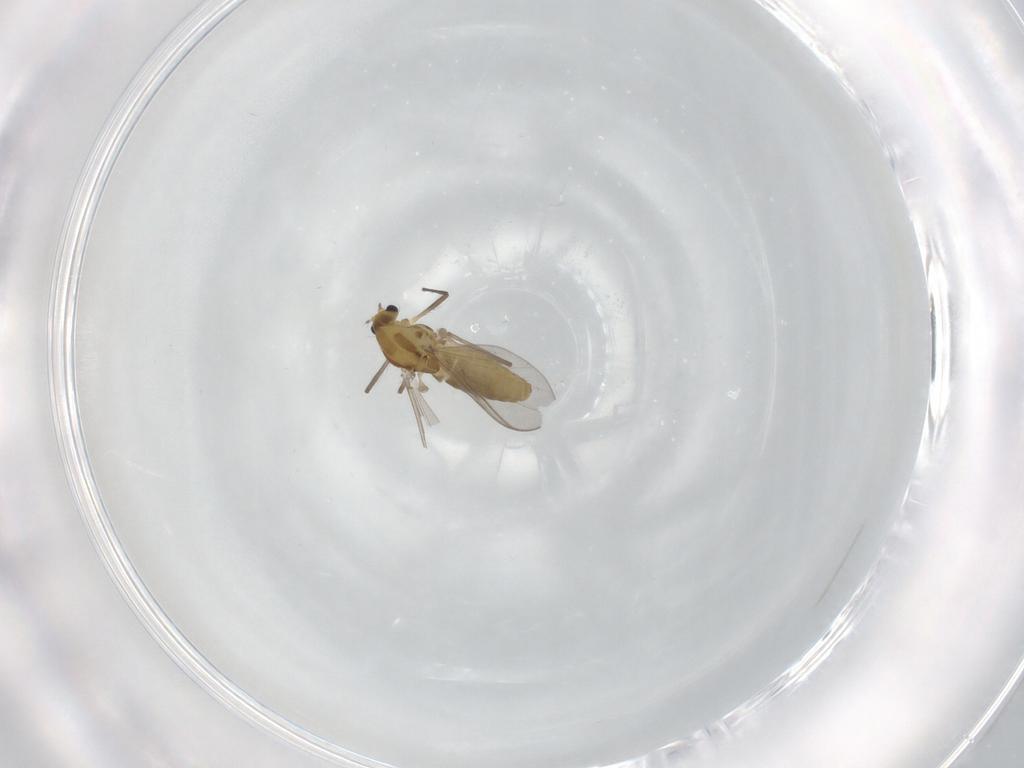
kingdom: Animalia
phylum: Arthropoda
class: Insecta
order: Diptera
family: Chironomidae
